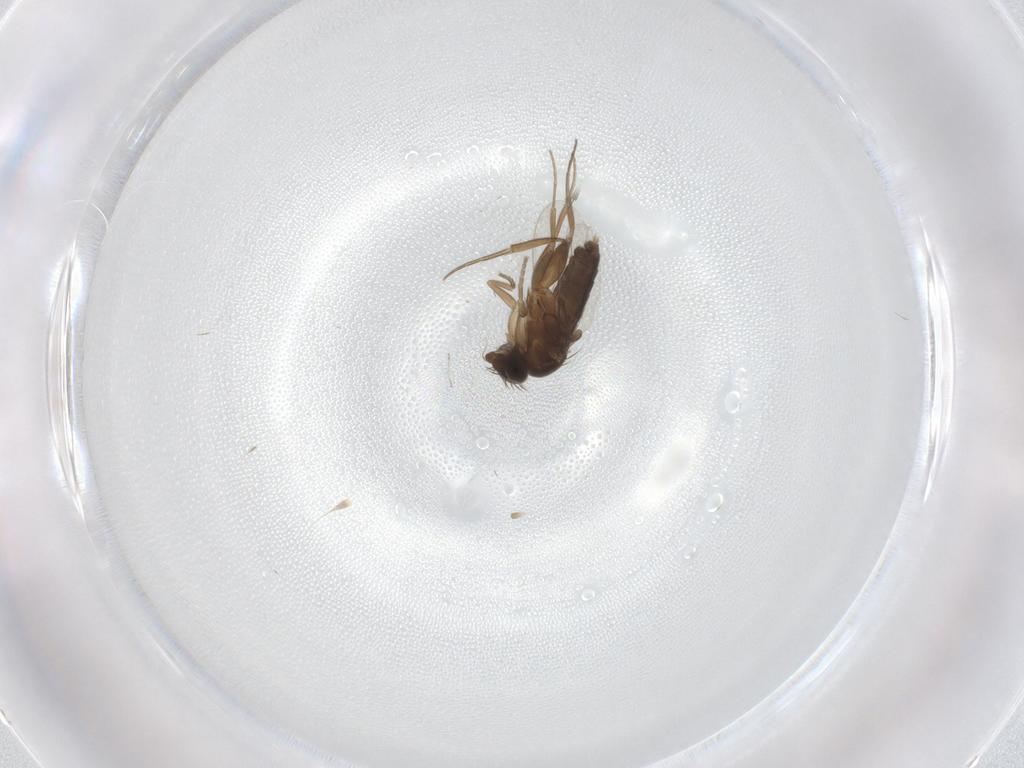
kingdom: Animalia
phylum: Arthropoda
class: Insecta
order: Diptera
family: Phoridae
